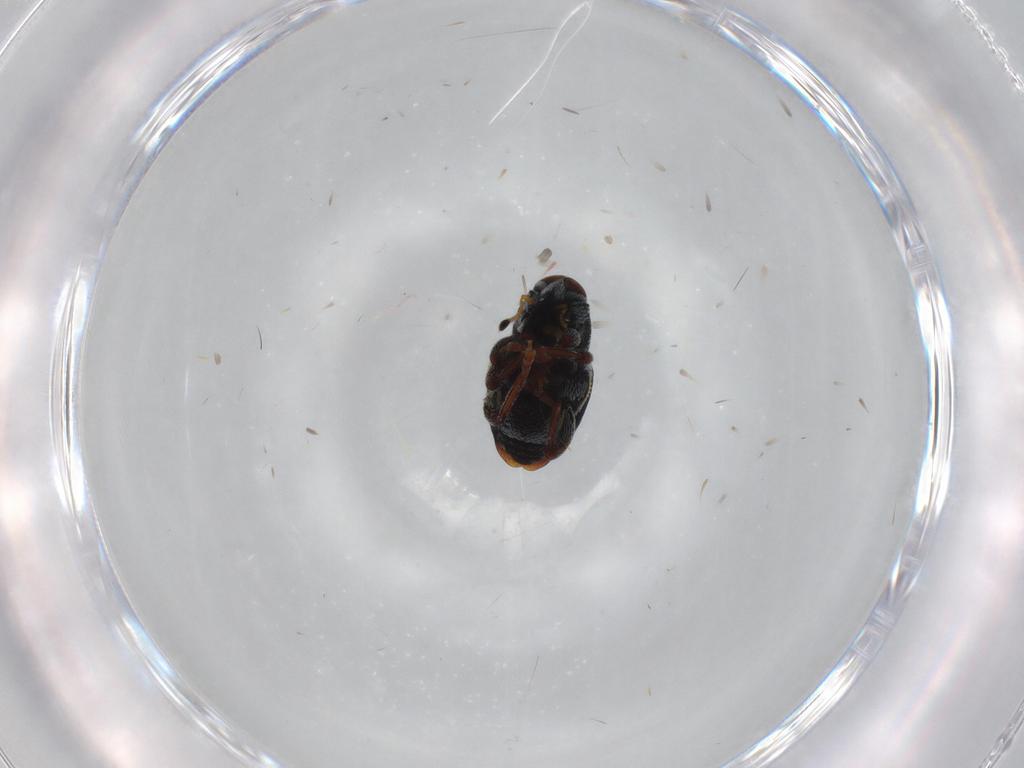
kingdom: Animalia
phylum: Arthropoda
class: Insecta
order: Coleoptera
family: Curculionidae
